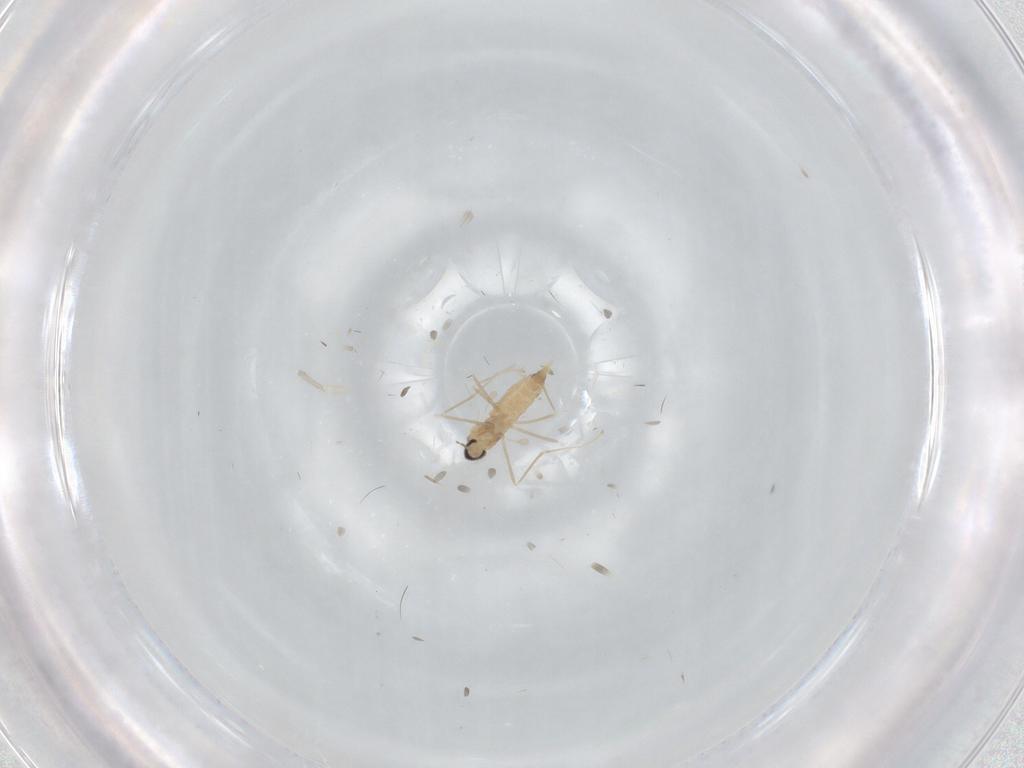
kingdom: Animalia
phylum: Arthropoda
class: Insecta
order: Diptera
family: Cecidomyiidae
